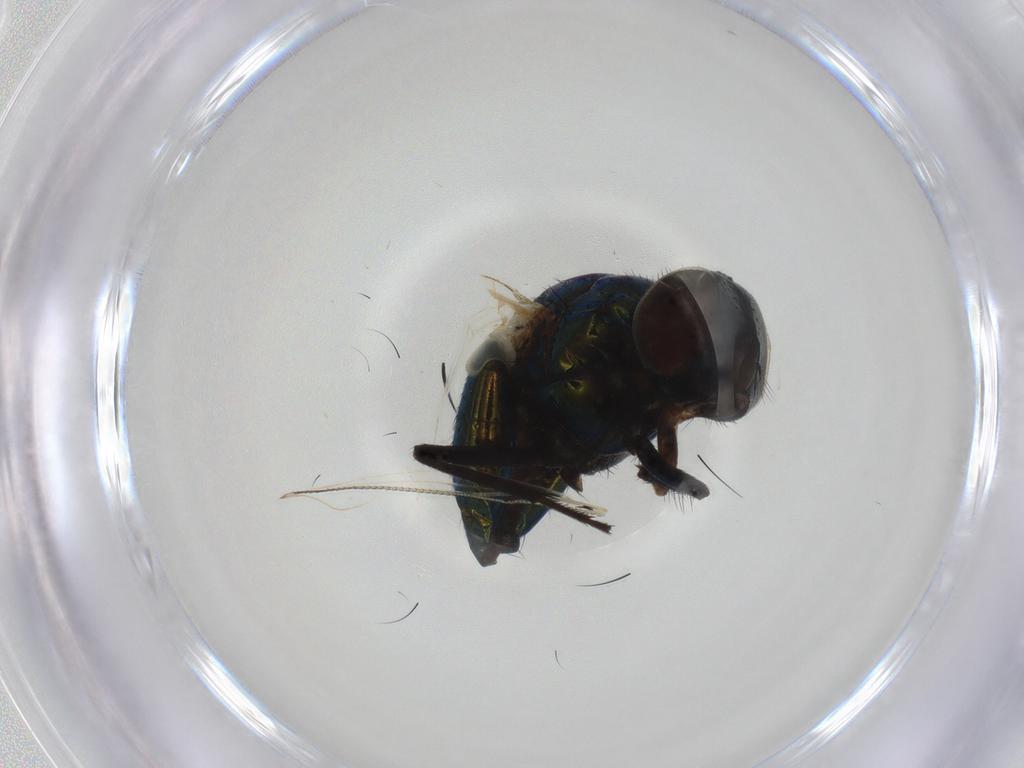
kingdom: Animalia
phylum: Arthropoda
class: Insecta
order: Diptera
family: Muscidae
